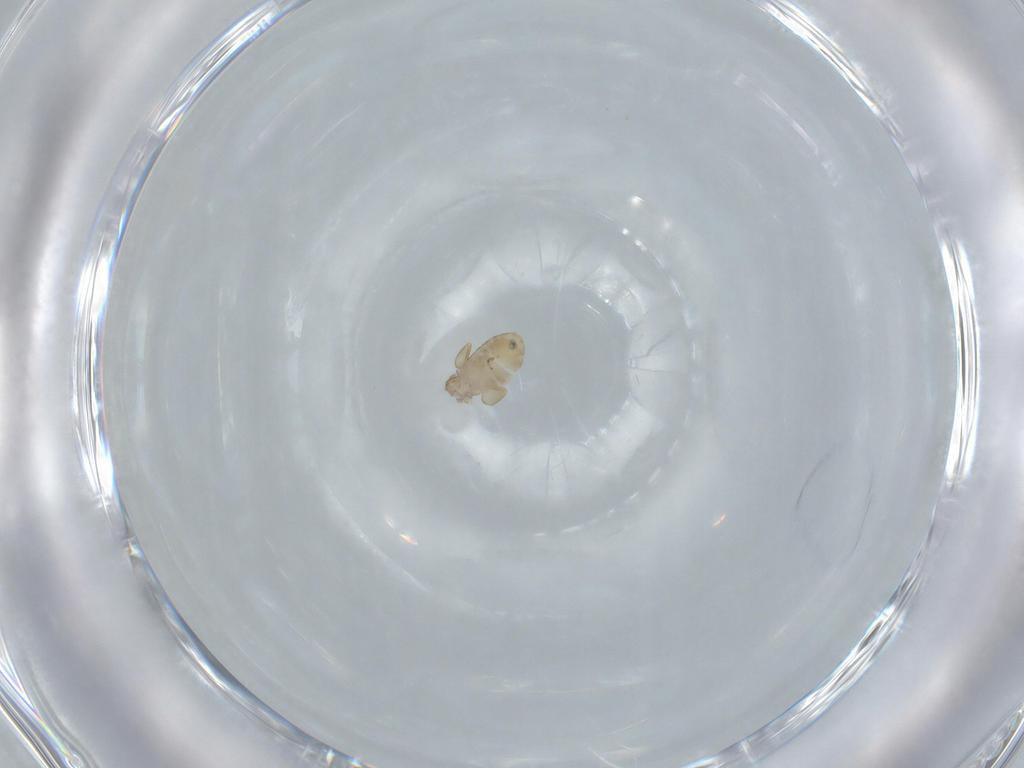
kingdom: Animalia
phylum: Arthropoda
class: Insecta
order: Psocodea
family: Liposcelididae
